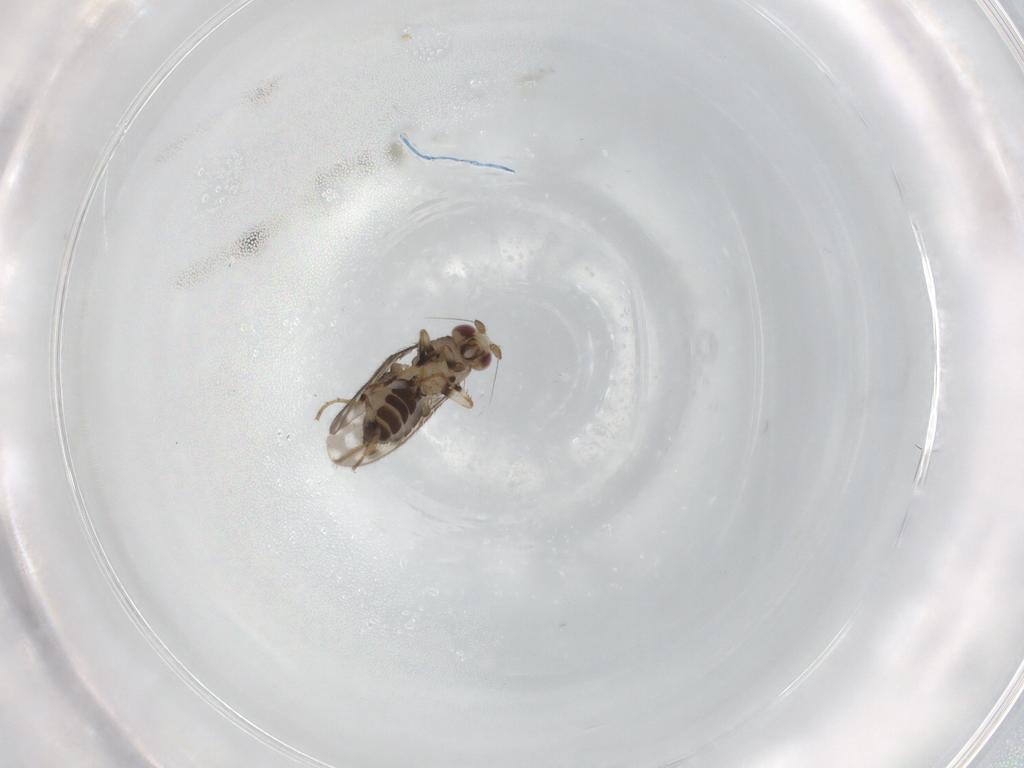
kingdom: Animalia
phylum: Arthropoda
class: Insecta
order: Diptera
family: Sphaeroceridae
